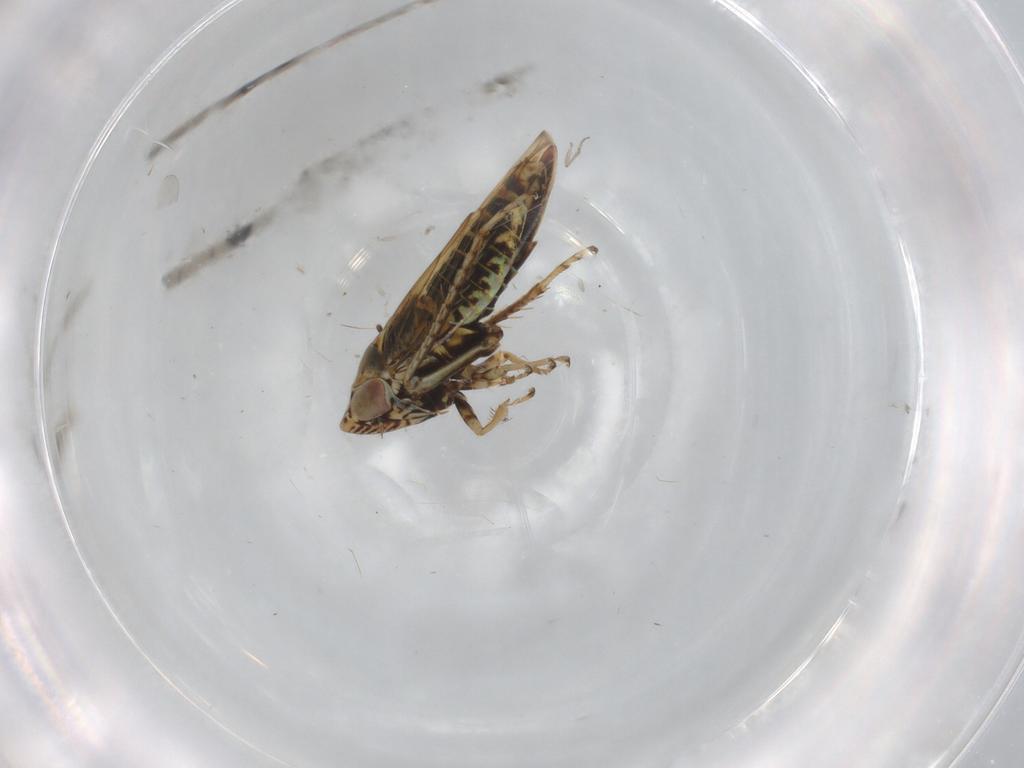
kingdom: Animalia
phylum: Arthropoda
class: Insecta
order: Hemiptera
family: Cicadellidae
